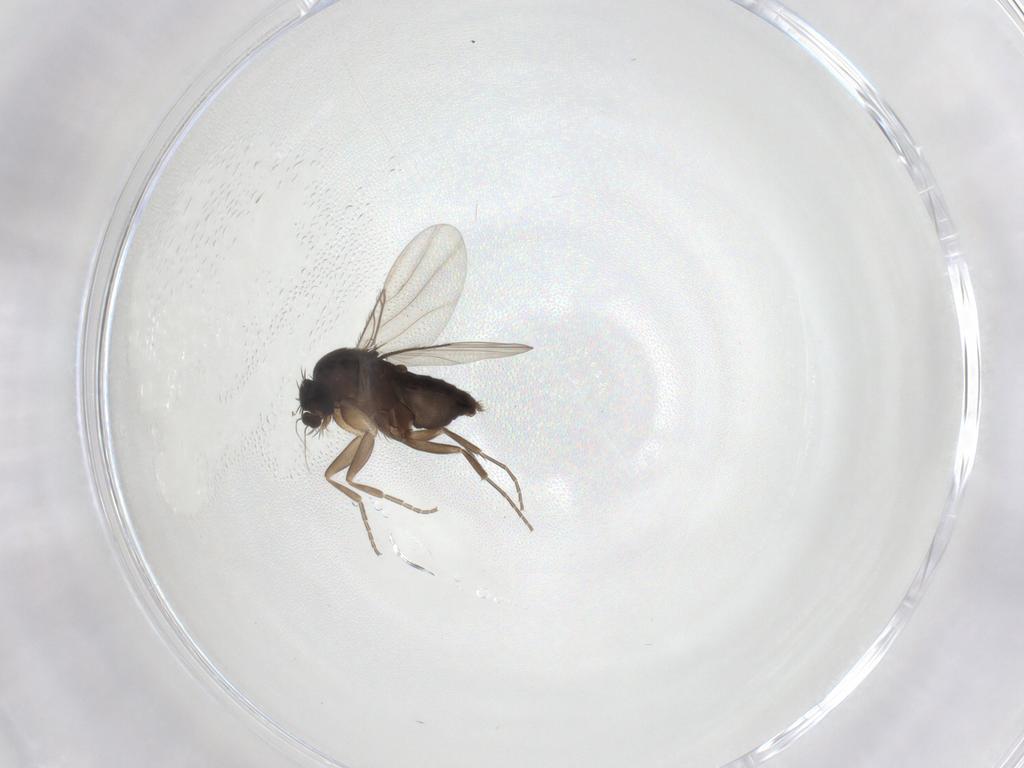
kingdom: Animalia
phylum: Arthropoda
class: Insecta
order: Diptera
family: Phoridae
